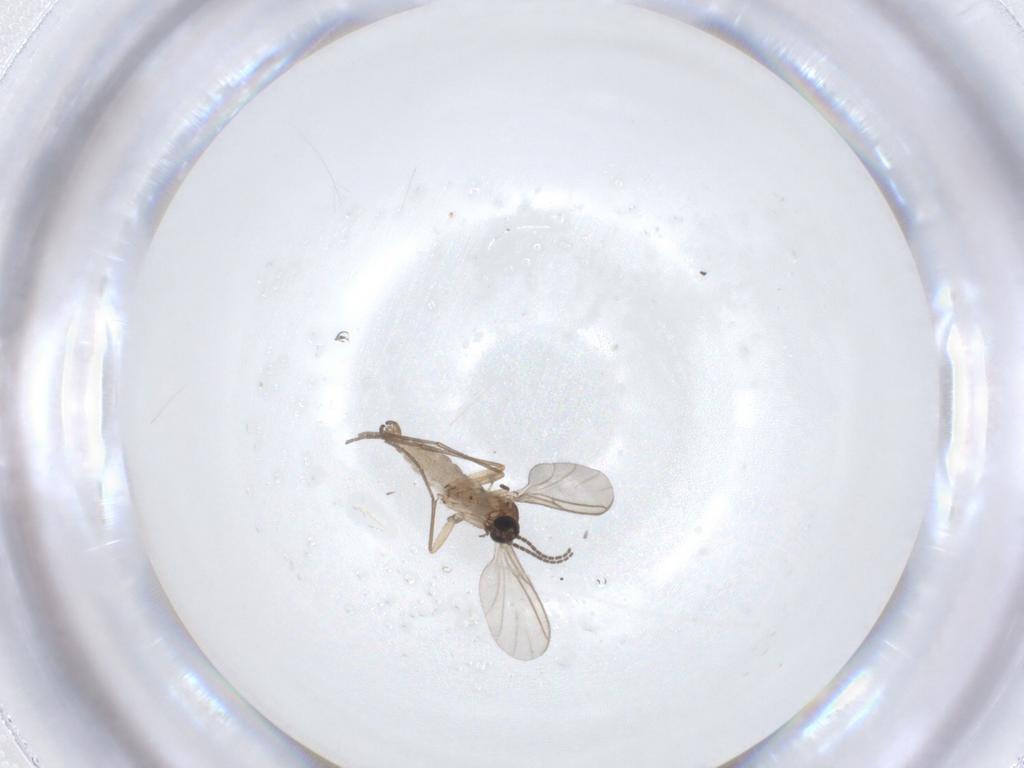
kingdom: Animalia
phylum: Arthropoda
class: Insecta
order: Diptera
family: Sciaridae
